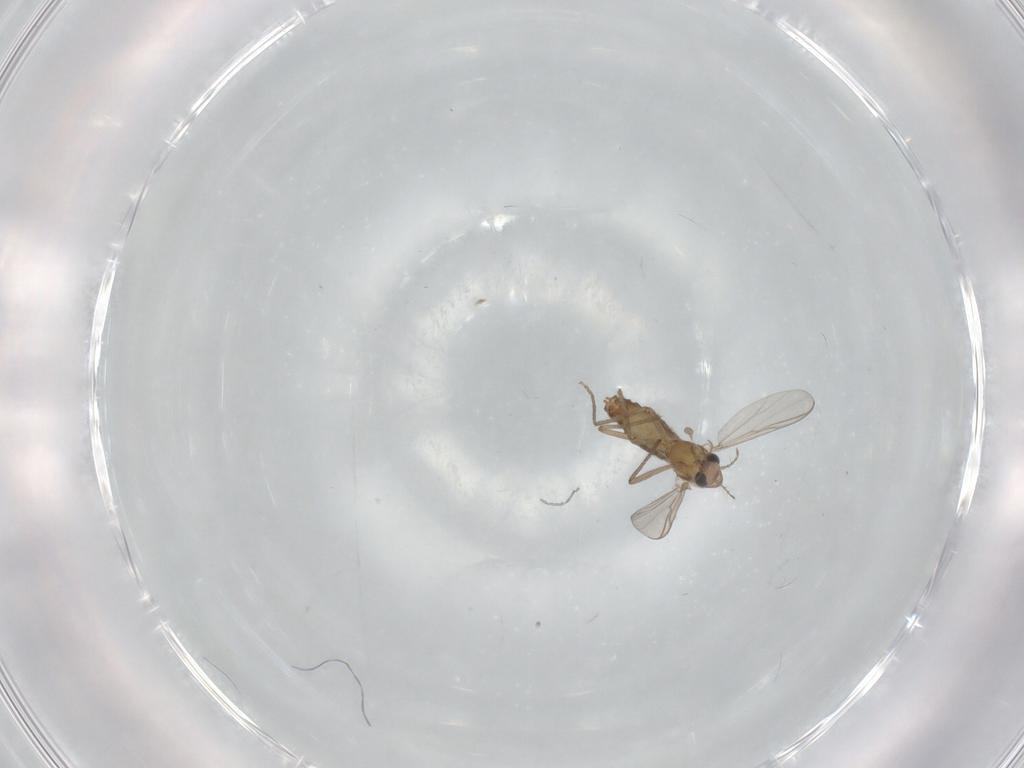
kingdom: Animalia
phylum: Arthropoda
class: Insecta
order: Diptera
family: Chironomidae
